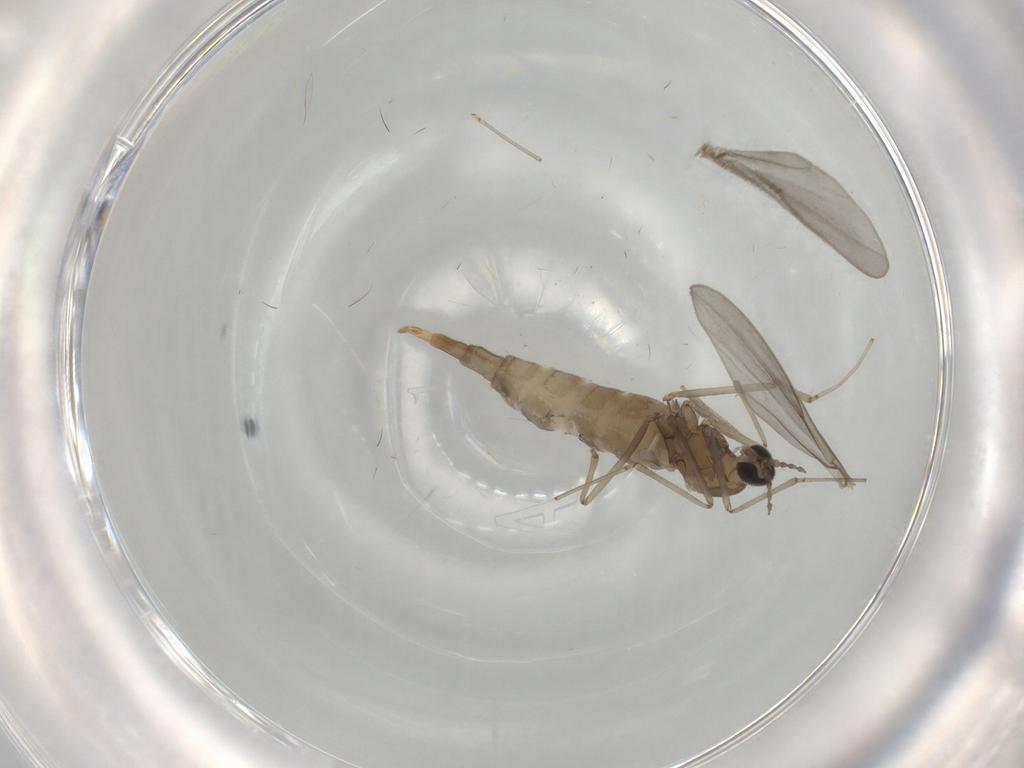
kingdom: Animalia
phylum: Arthropoda
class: Insecta
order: Diptera
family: Cecidomyiidae
